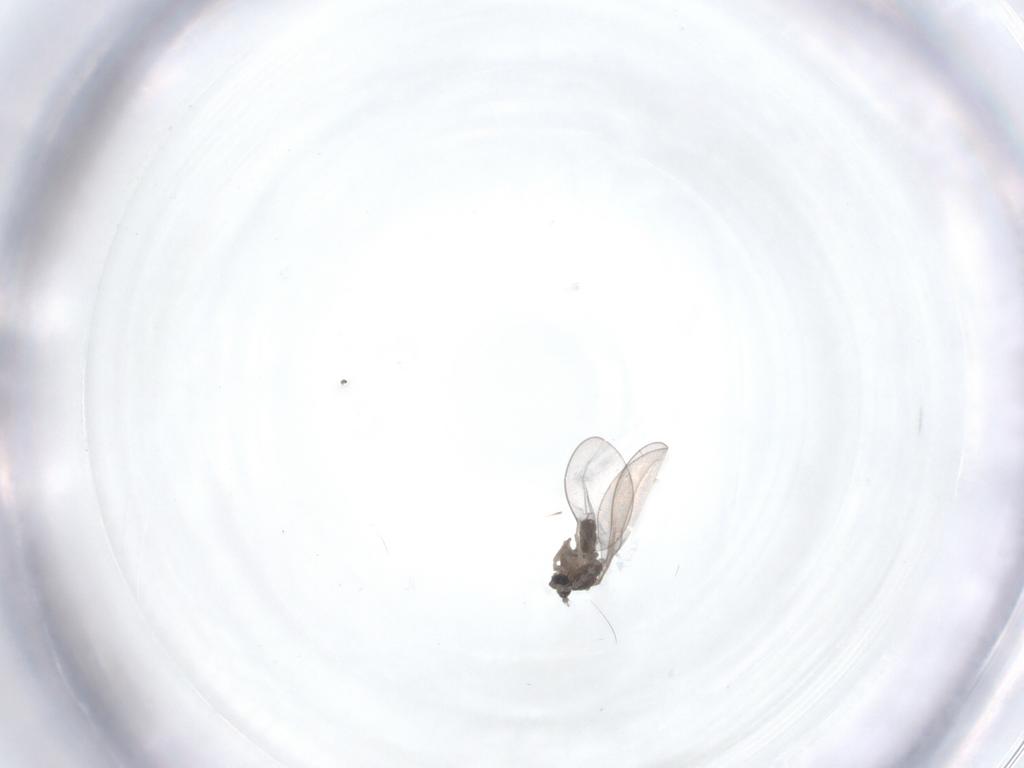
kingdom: Animalia
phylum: Arthropoda
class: Insecta
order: Diptera
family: Cecidomyiidae
